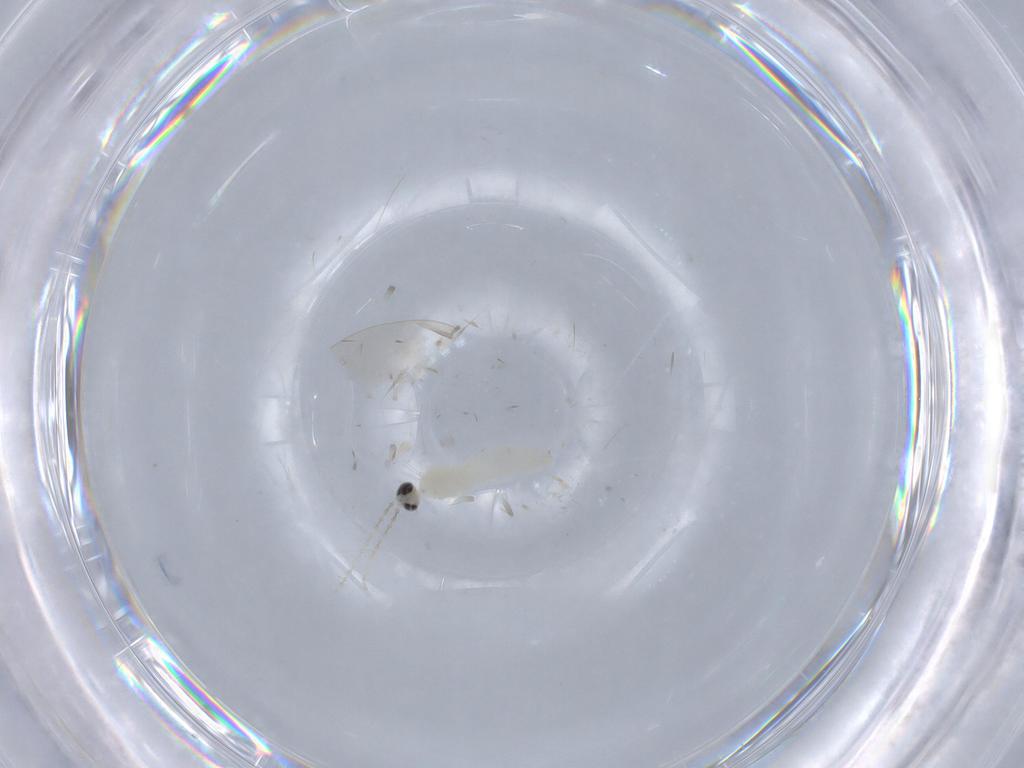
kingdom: Animalia
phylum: Arthropoda
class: Insecta
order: Diptera
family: Cecidomyiidae
